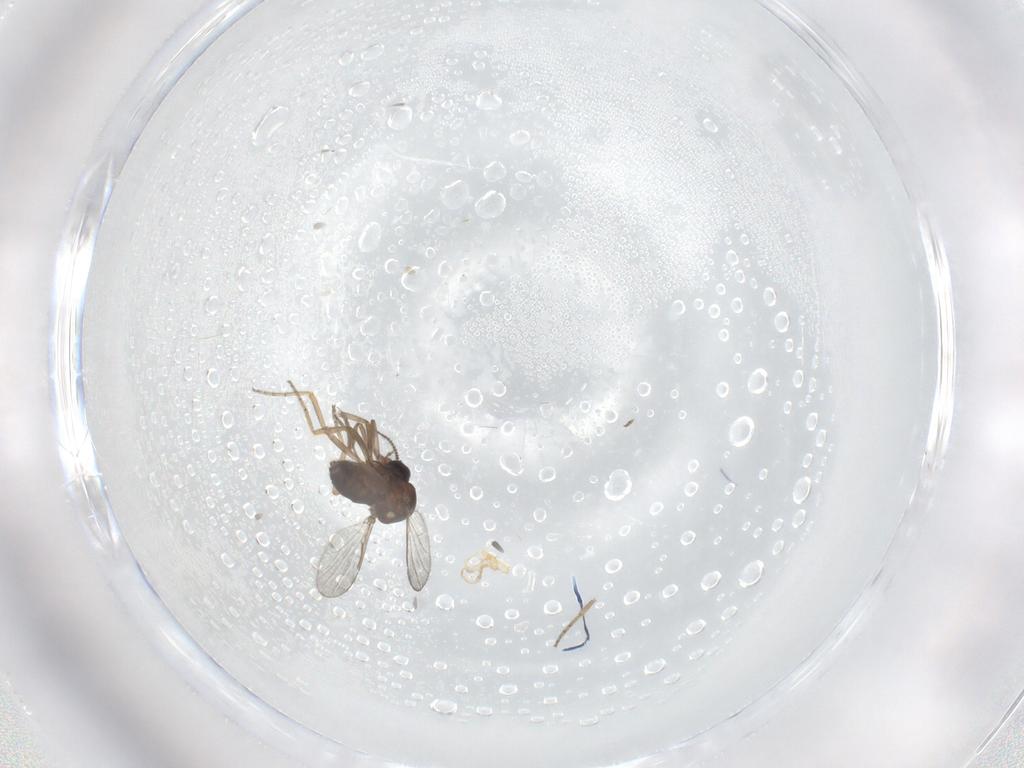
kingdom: Animalia
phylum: Arthropoda
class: Insecta
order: Diptera
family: Ceratopogonidae
